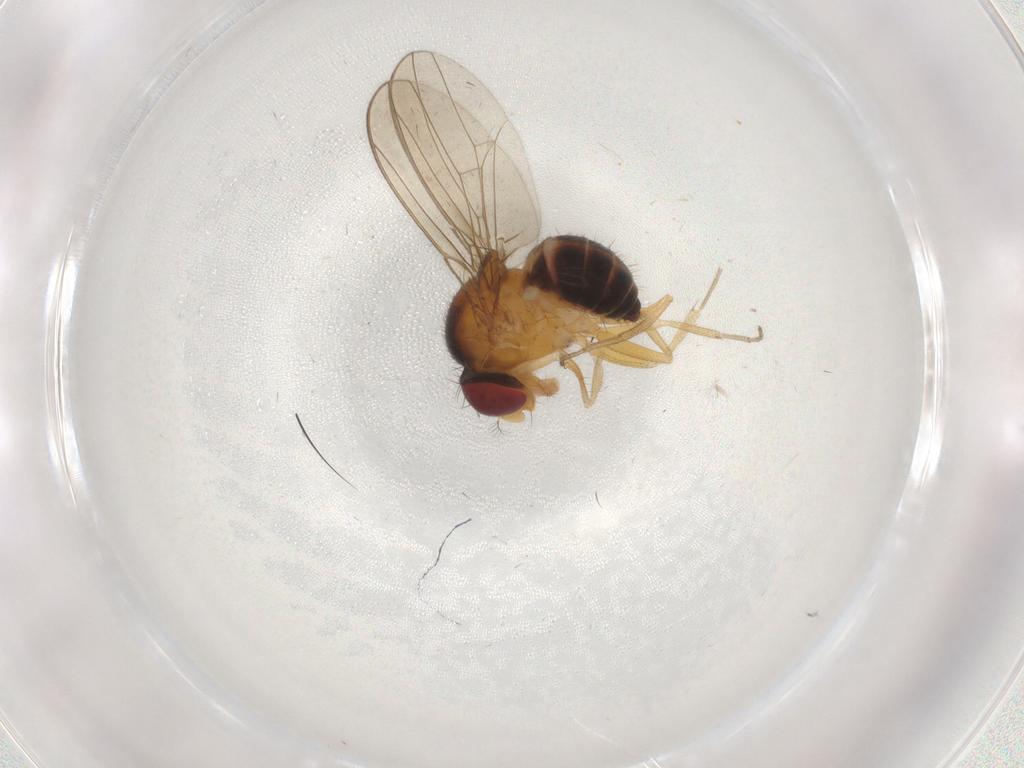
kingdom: Animalia
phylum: Arthropoda
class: Insecta
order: Diptera
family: Drosophilidae
